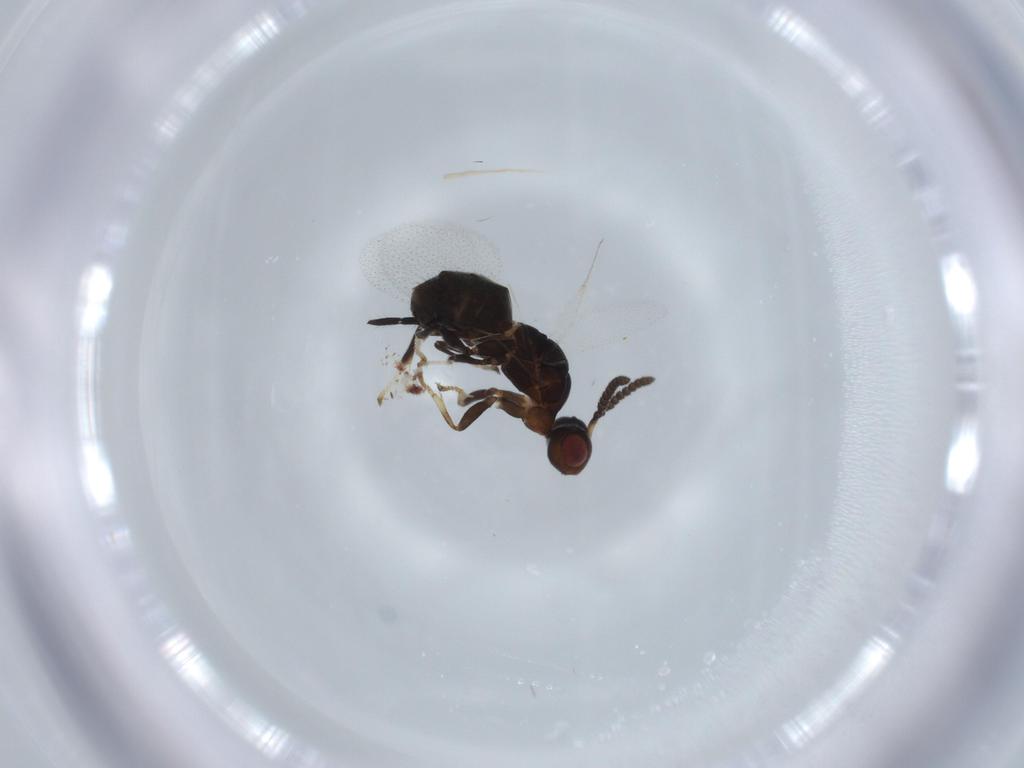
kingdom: Animalia
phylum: Arthropoda
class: Insecta
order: Hymenoptera
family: Agaonidae
